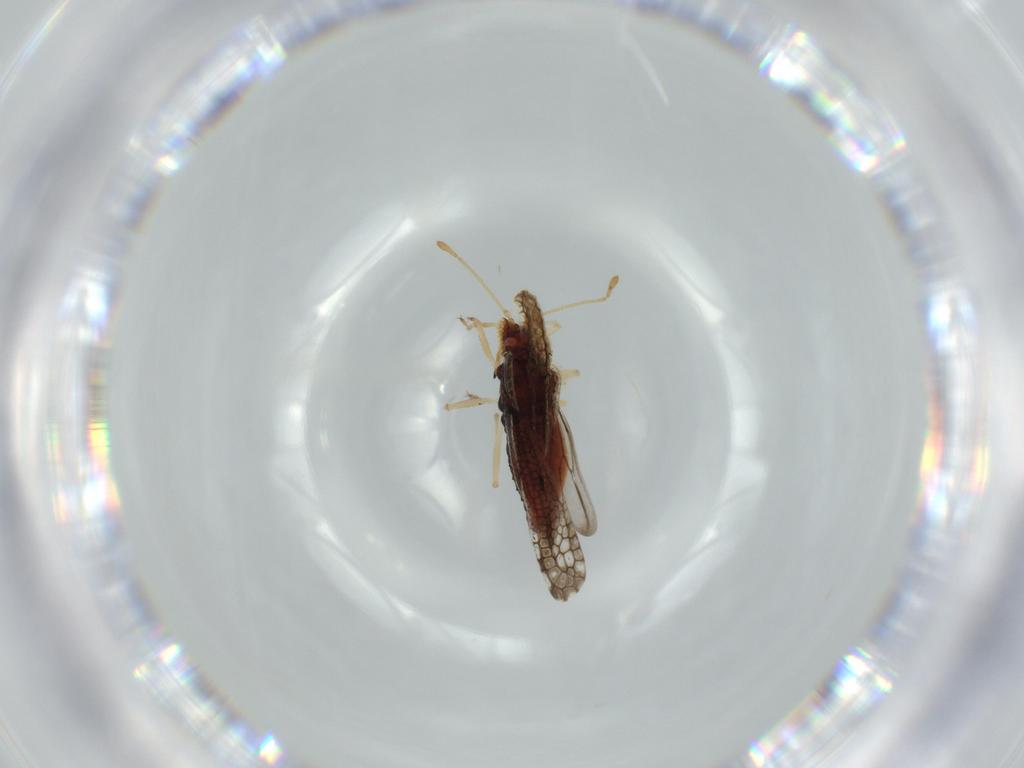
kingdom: Animalia
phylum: Arthropoda
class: Insecta
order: Hemiptera
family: Tingidae
